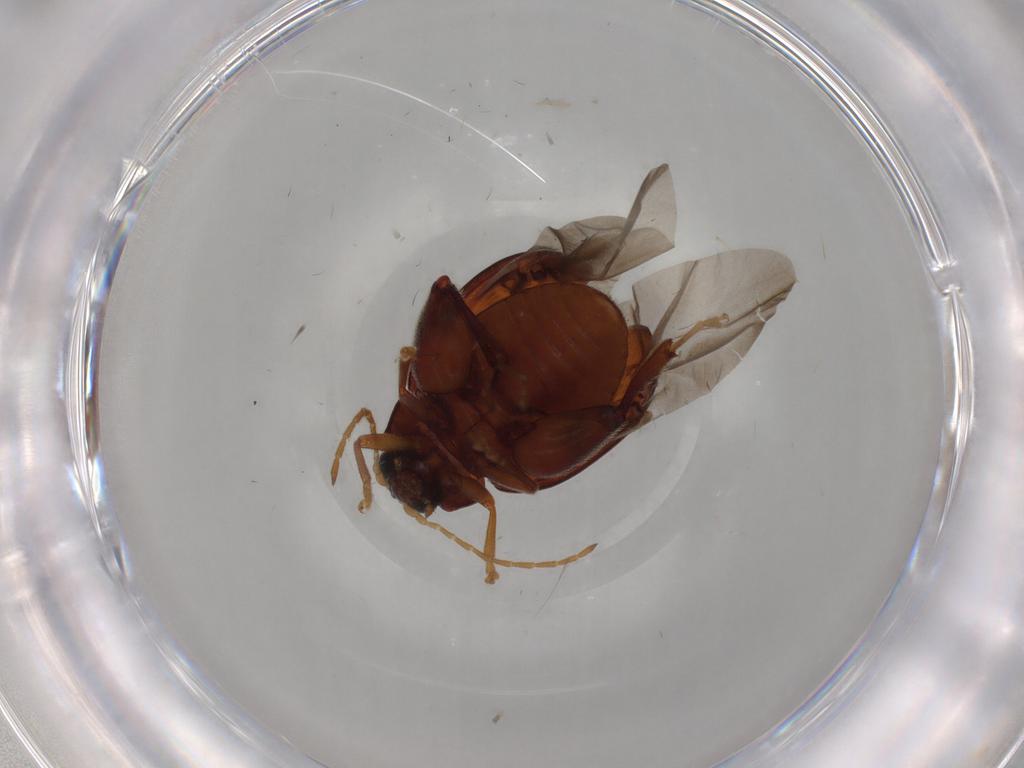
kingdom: Animalia
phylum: Arthropoda
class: Insecta
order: Coleoptera
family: Chrysomelidae
